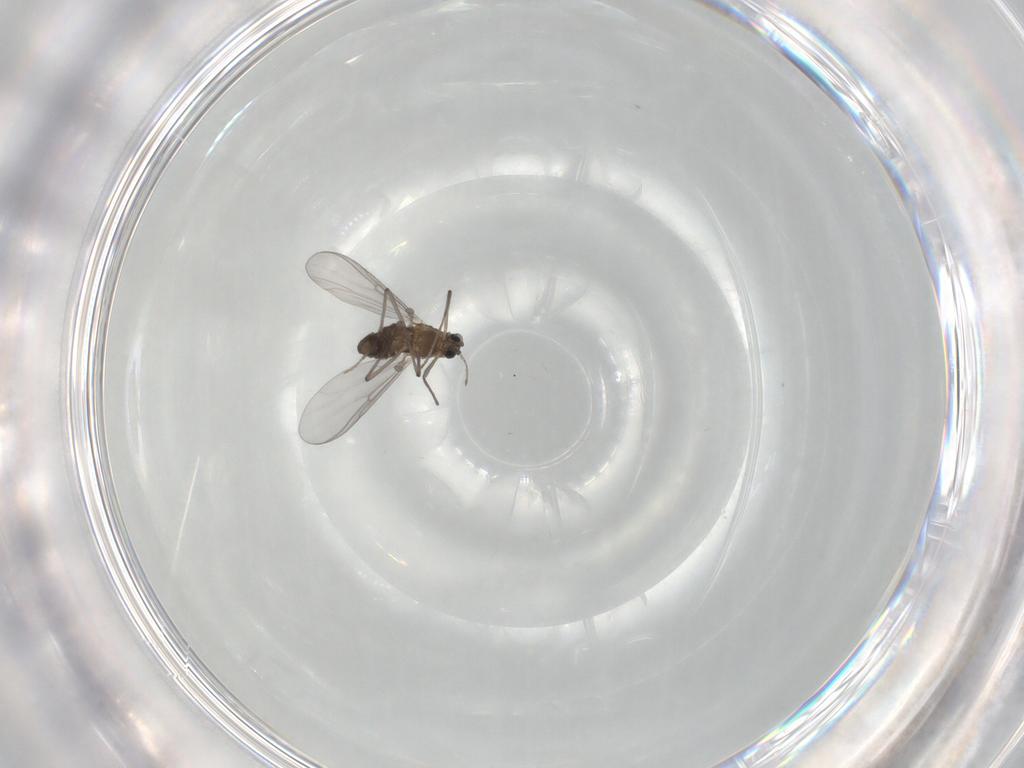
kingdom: Animalia
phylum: Arthropoda
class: Insecta
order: Diptera
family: Chironomidae
